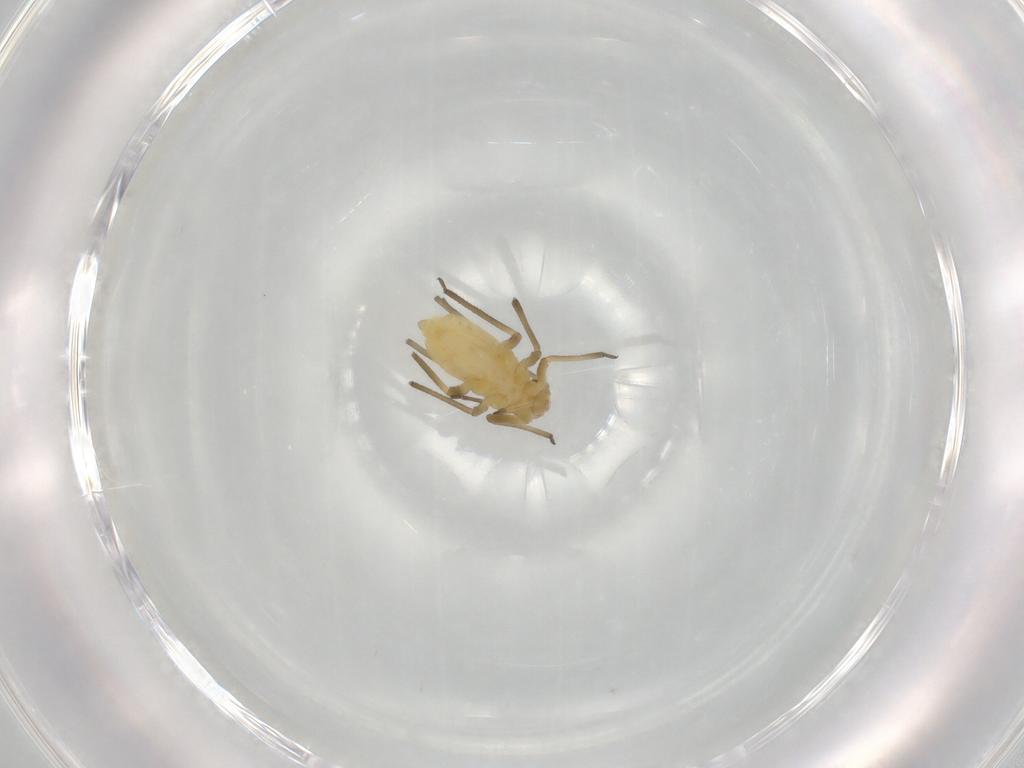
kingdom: Animalia
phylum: Arthropoda
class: Insecta
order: Hemiptera
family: Aphididae
